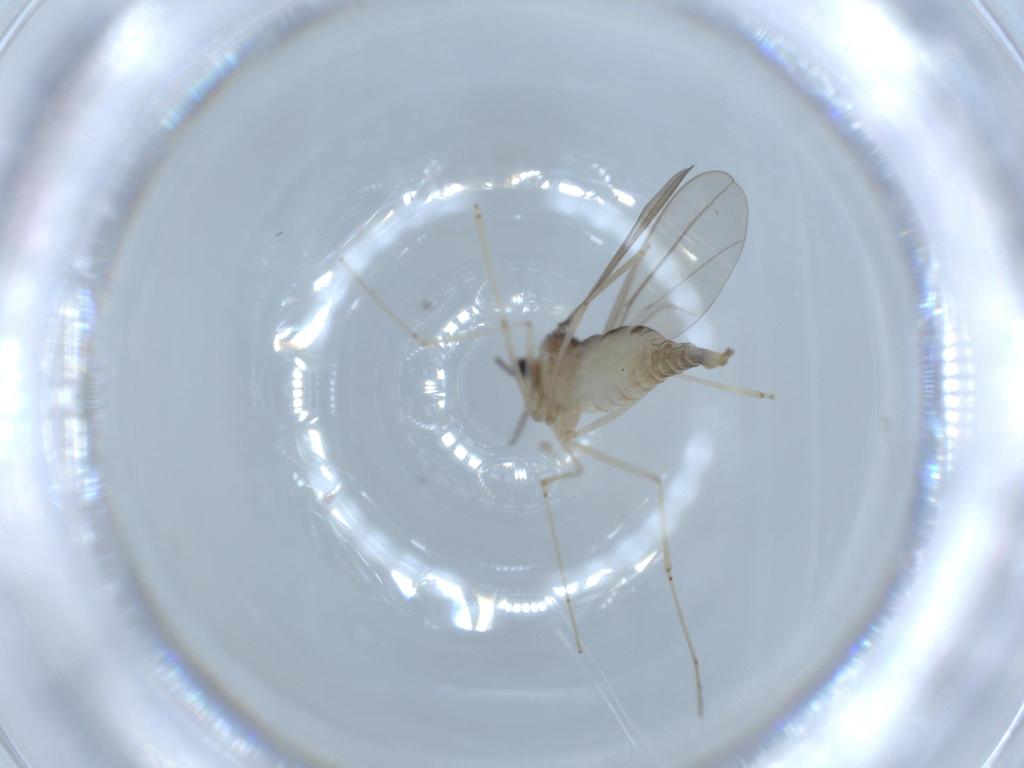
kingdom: Animalia
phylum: Arthropoda
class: Insecta
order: Diptera
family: Cecidomyiidae
